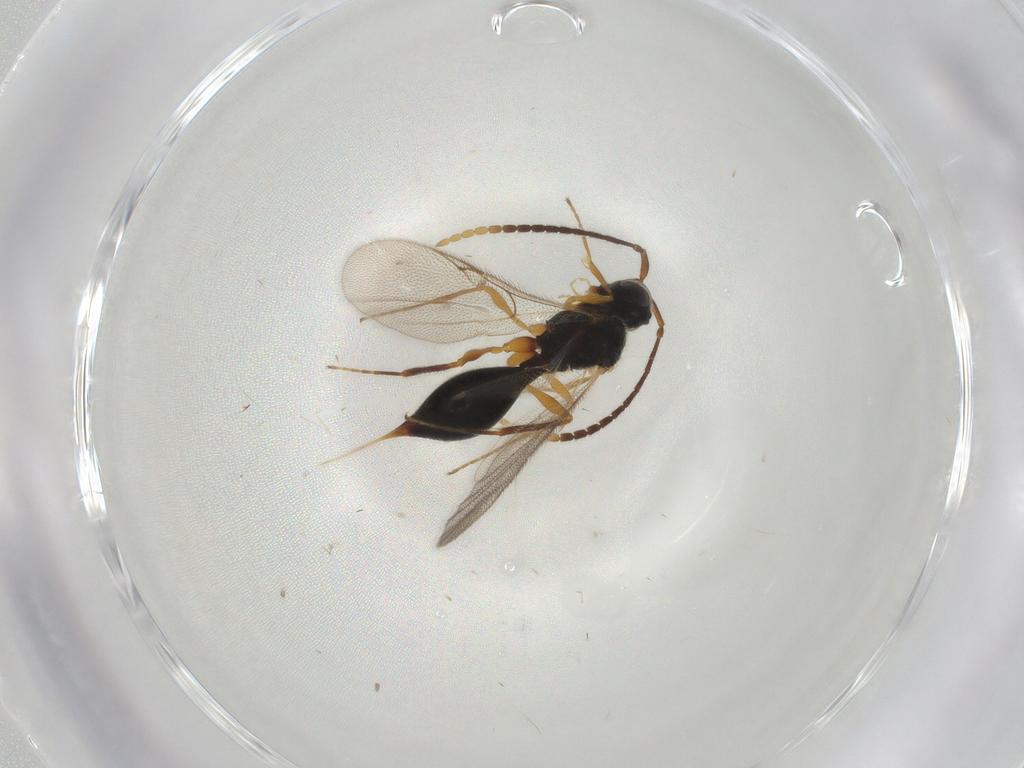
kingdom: Animalia
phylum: Arthropoda
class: Insecta
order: Hymenoptera
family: Diapriidae
